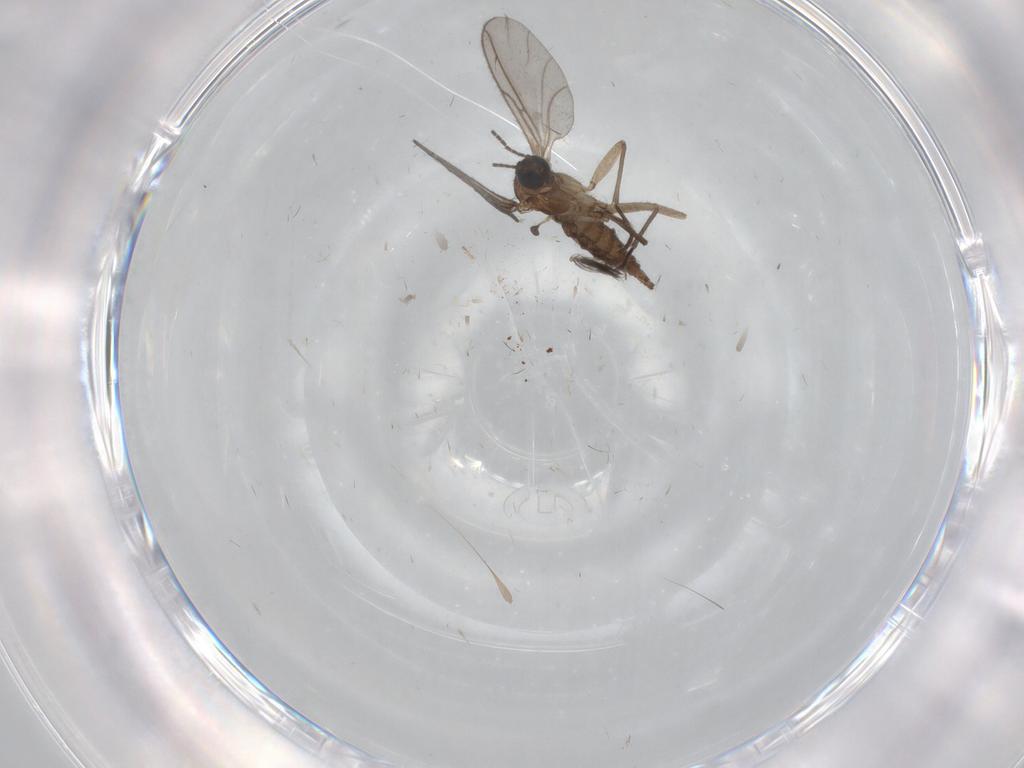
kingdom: Animalia
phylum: Arthropoda
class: Insecta
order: Diptera
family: Sciaridae
